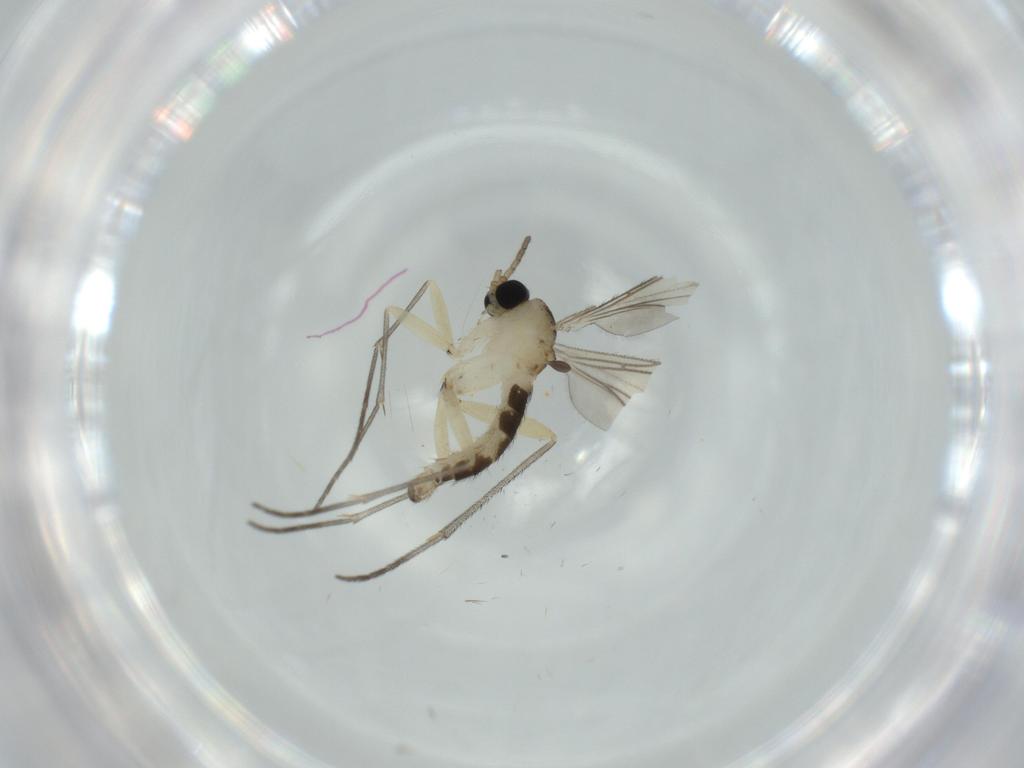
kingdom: Animalia
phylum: Arthropoda
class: Insecta
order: Diptera
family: Sciaridae
